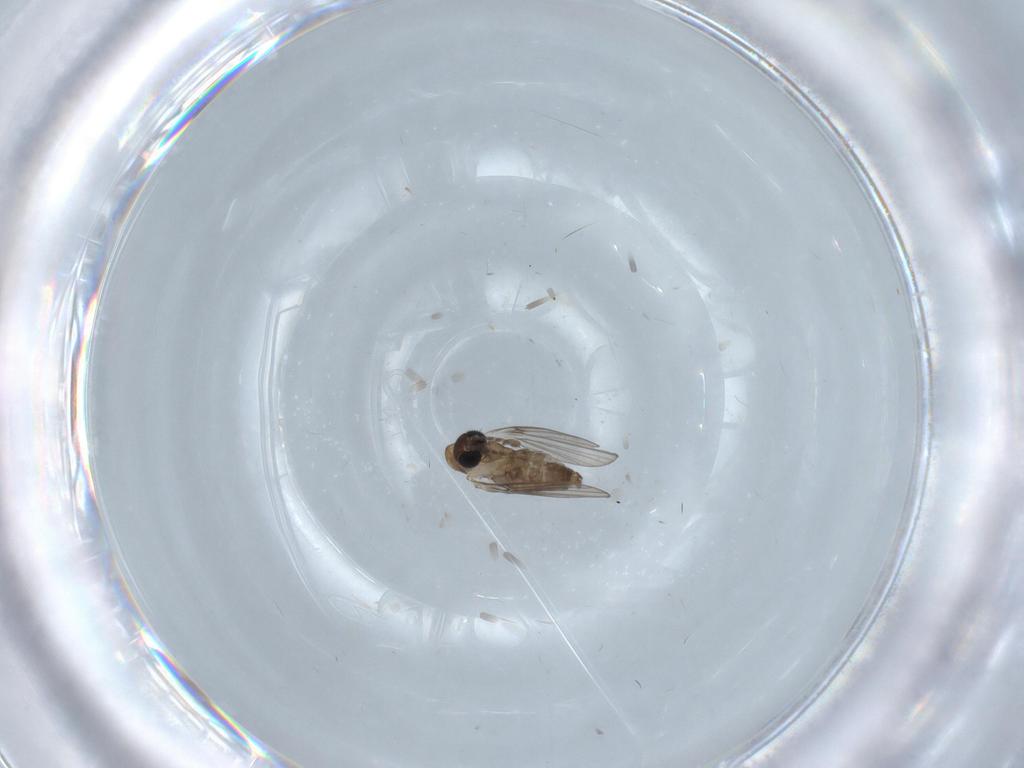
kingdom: Animalia
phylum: Arthropoda
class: Insecta
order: Diptera
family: Psychodidae
